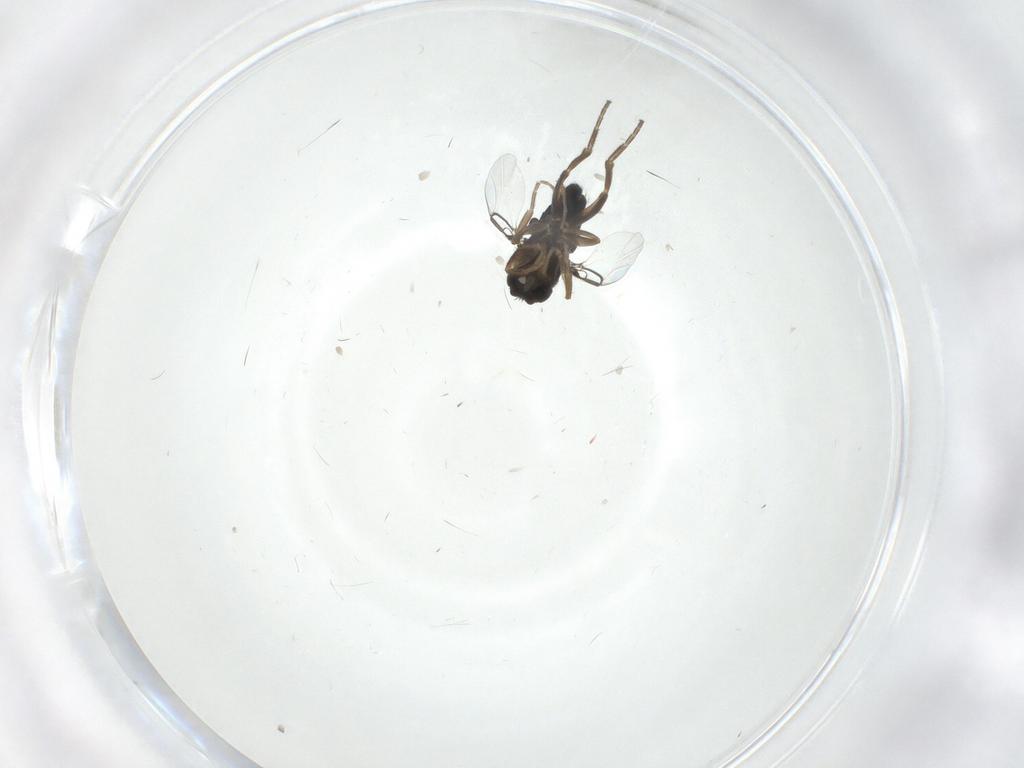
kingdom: Animalia
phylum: Arthropoda
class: Insecta
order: Diptera
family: Phoridae
